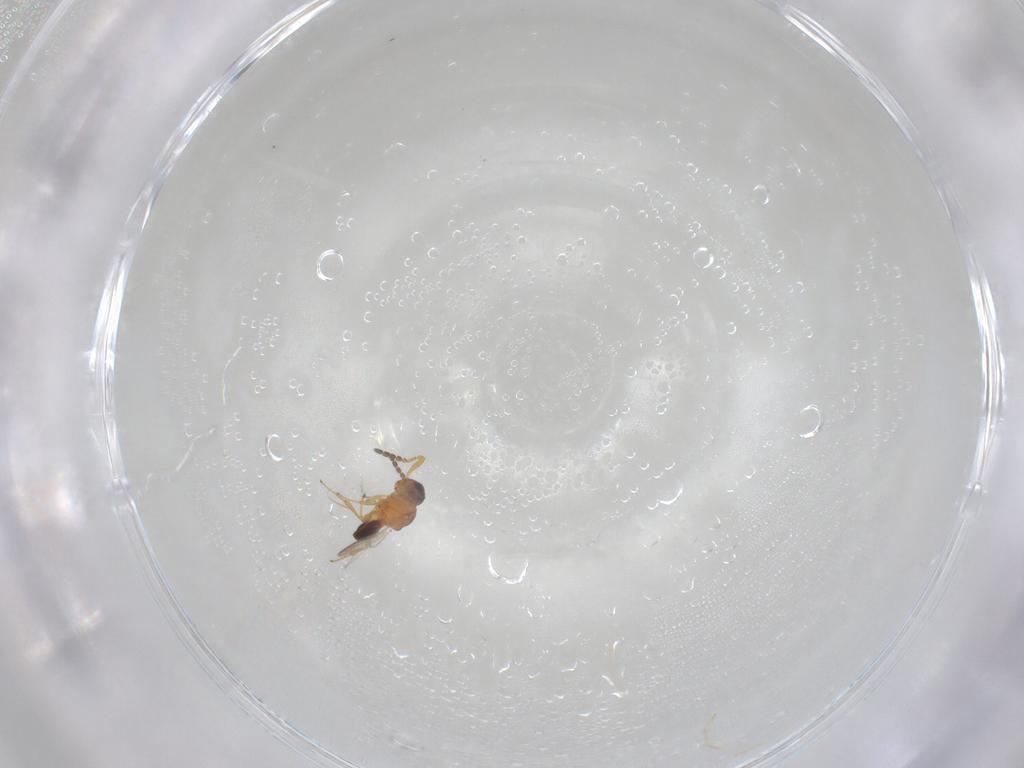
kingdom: Animalia
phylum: Arthropoda
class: Insecta
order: Hymenoptera
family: Platygastridae
